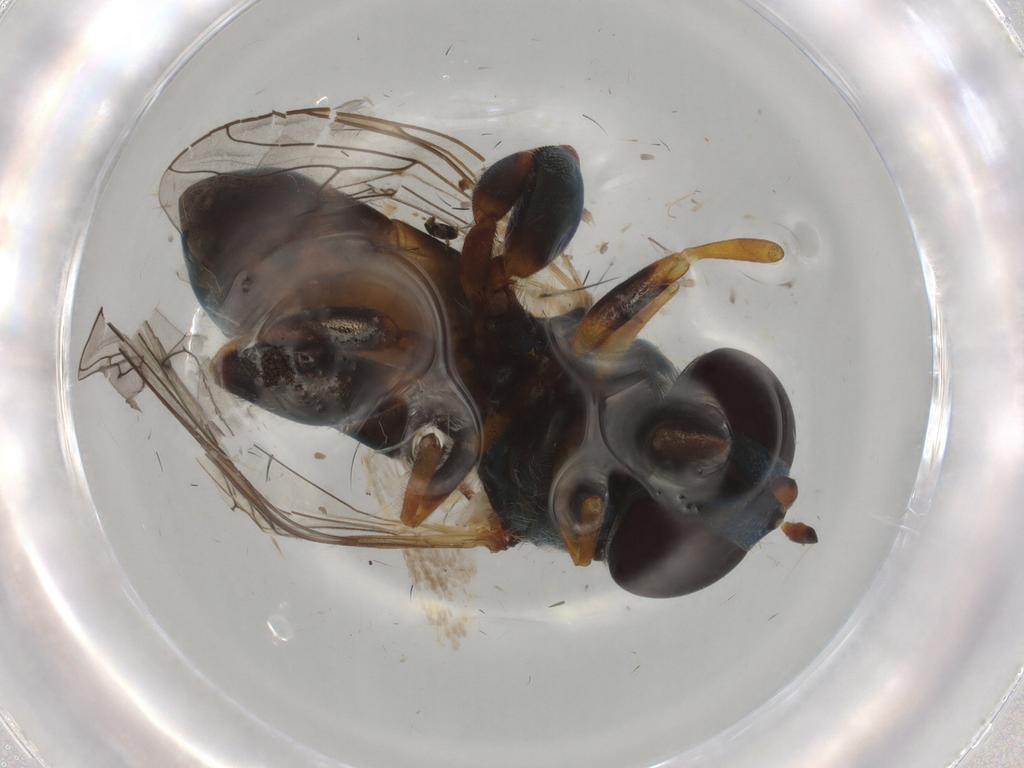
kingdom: Animalia
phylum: Arthropoda
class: Insecta
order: Diptera
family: Syrphidae
